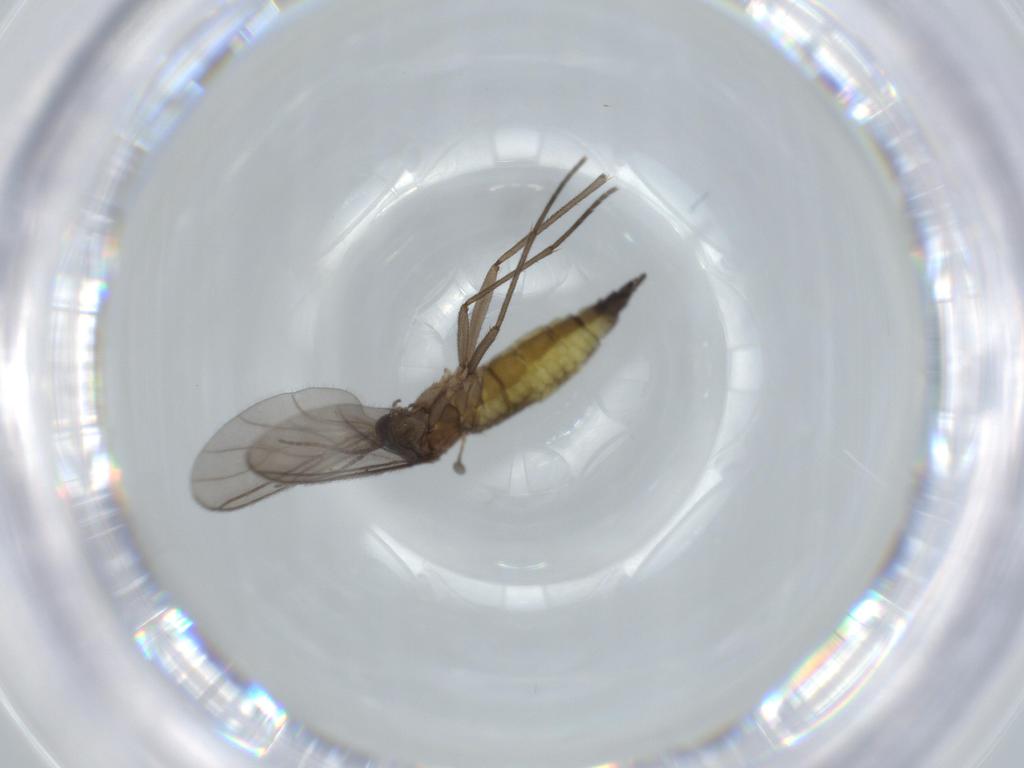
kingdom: Animalia
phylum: Arthropoda
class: Insecta
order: Diptera
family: Sciaridae
